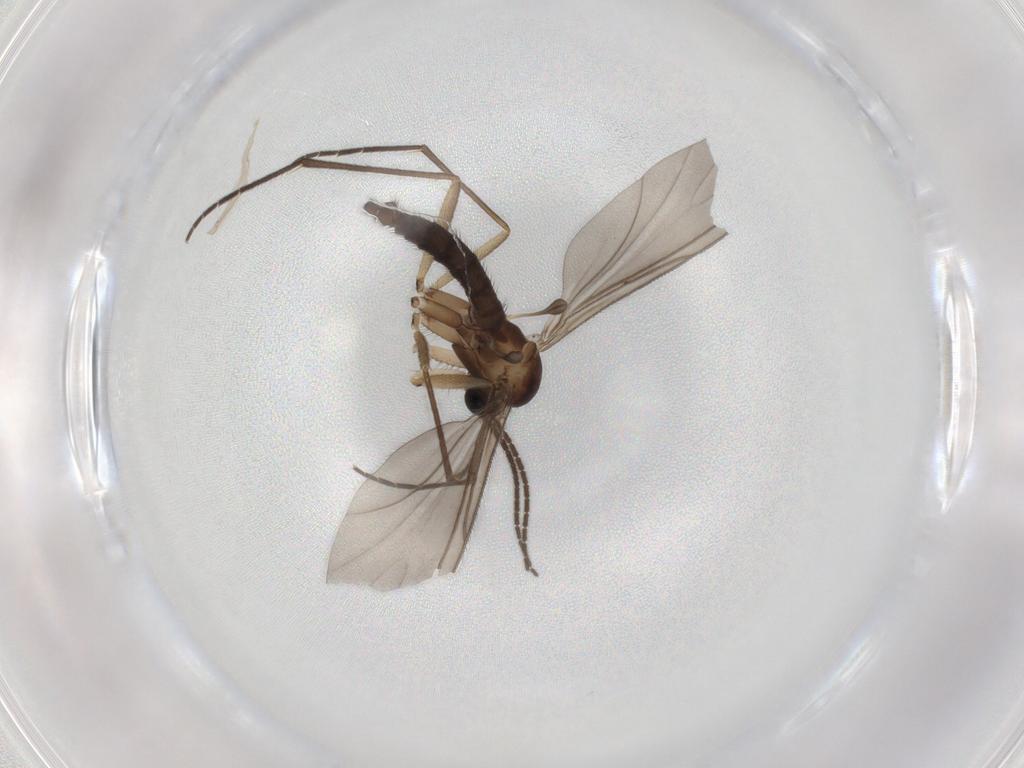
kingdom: Animalia
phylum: Arthropoda
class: Insecta
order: Diptera
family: Sciaridae
